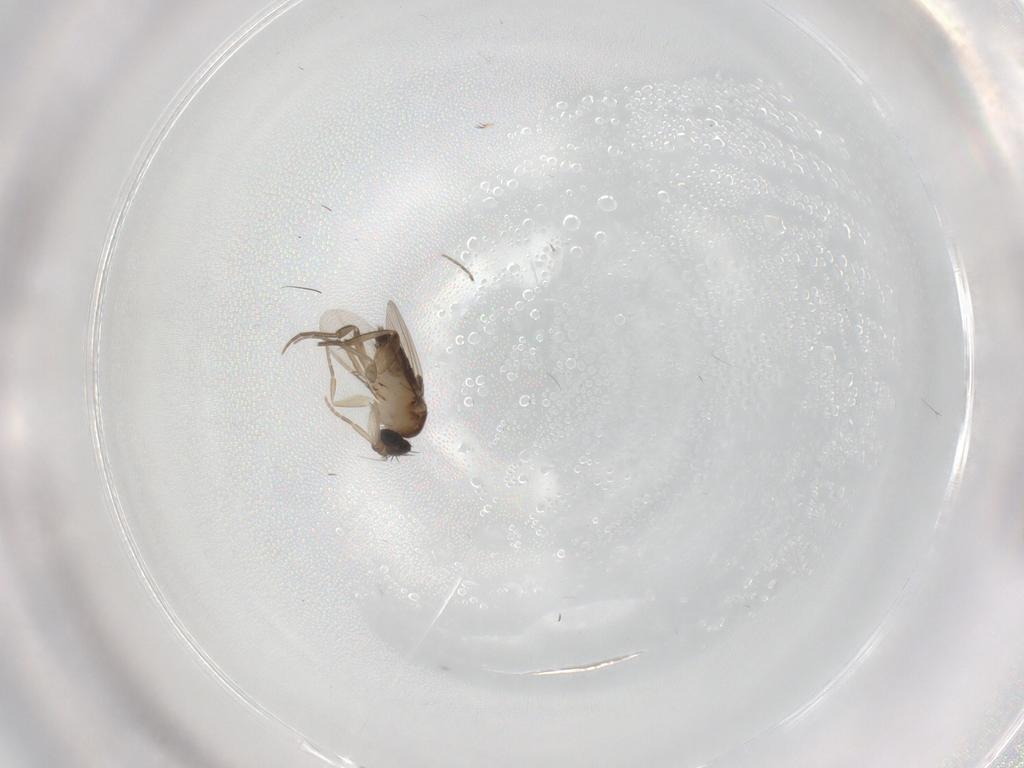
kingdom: Animalia
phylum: Arthropoda
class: Insecta
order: Diptera
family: Ceratopogonidae
